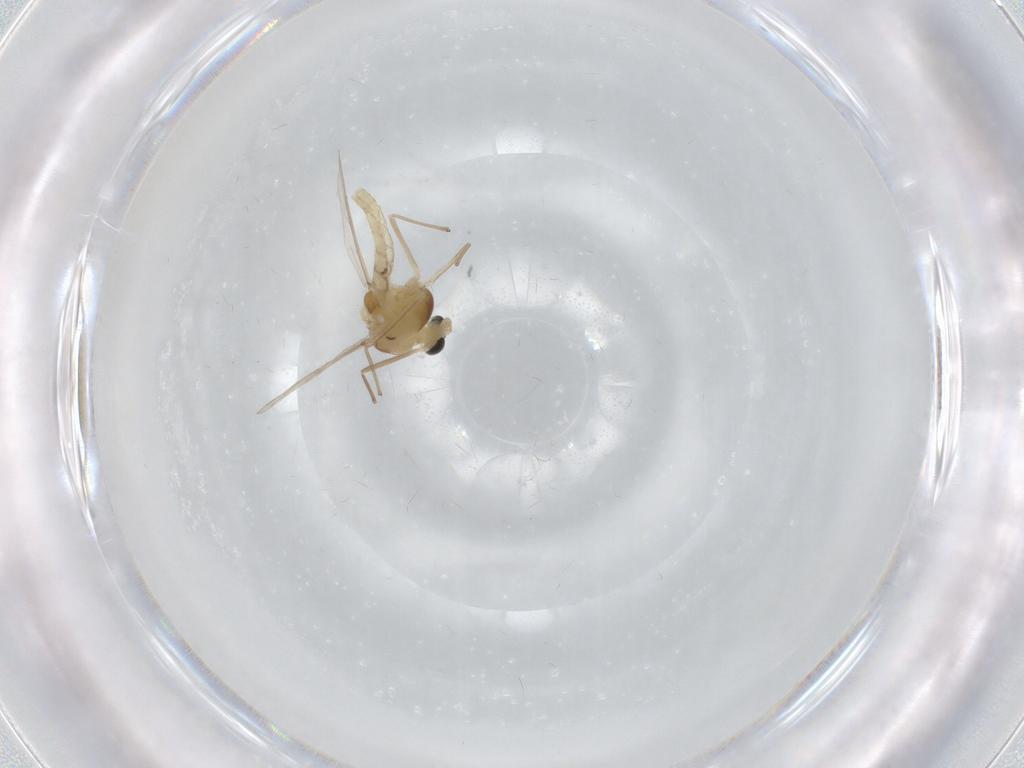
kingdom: Animalia
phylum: Arthropoda
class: Insecta
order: Diptera
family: Chironomidae
